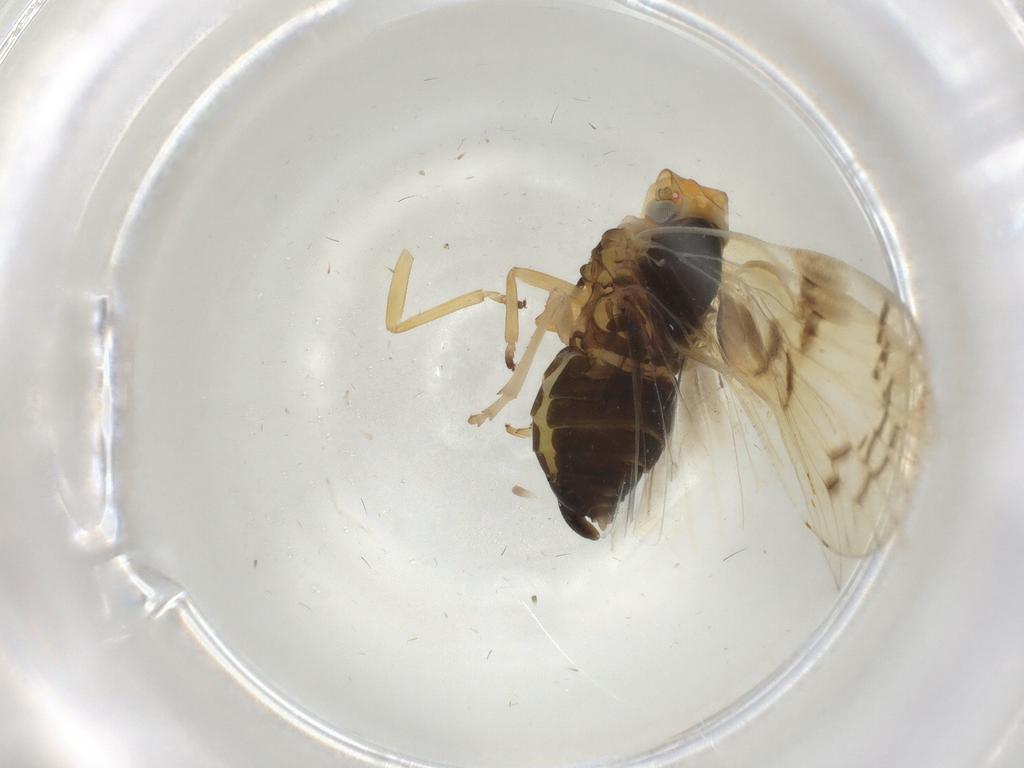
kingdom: Animalia
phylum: Arthropoda
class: Insecta
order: Hemiptera
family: Cixiidae
